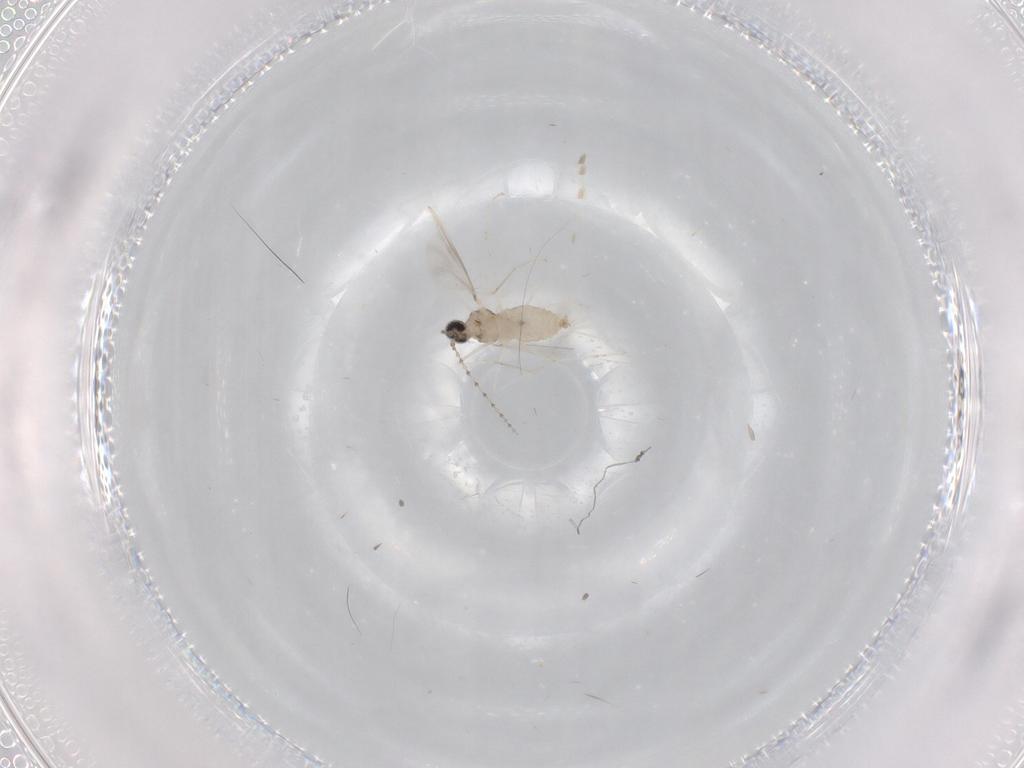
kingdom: Animalia
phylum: Arthropoda
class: Insecta
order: Diptera
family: Cecidomyiidae
